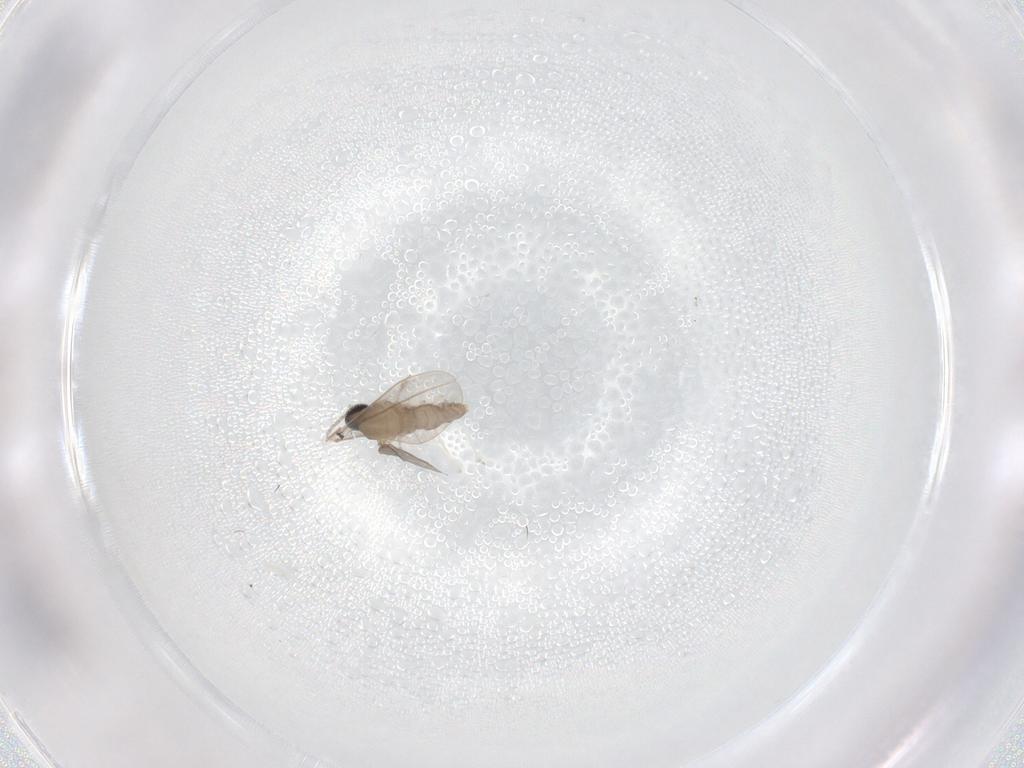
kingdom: Animalia
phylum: Arthropoda
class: Insecta
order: Diptera
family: Cecidomyiidae
